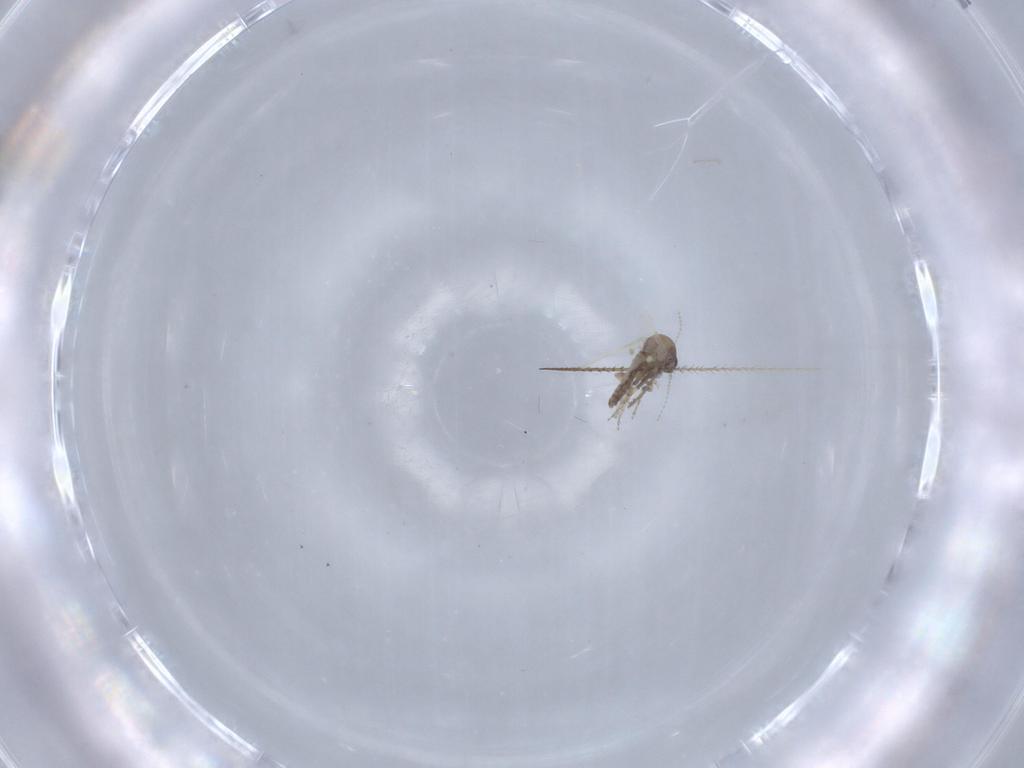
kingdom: Animalia
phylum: Arthropoda
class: Insecta
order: Diptera
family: Ceratopogonidae
